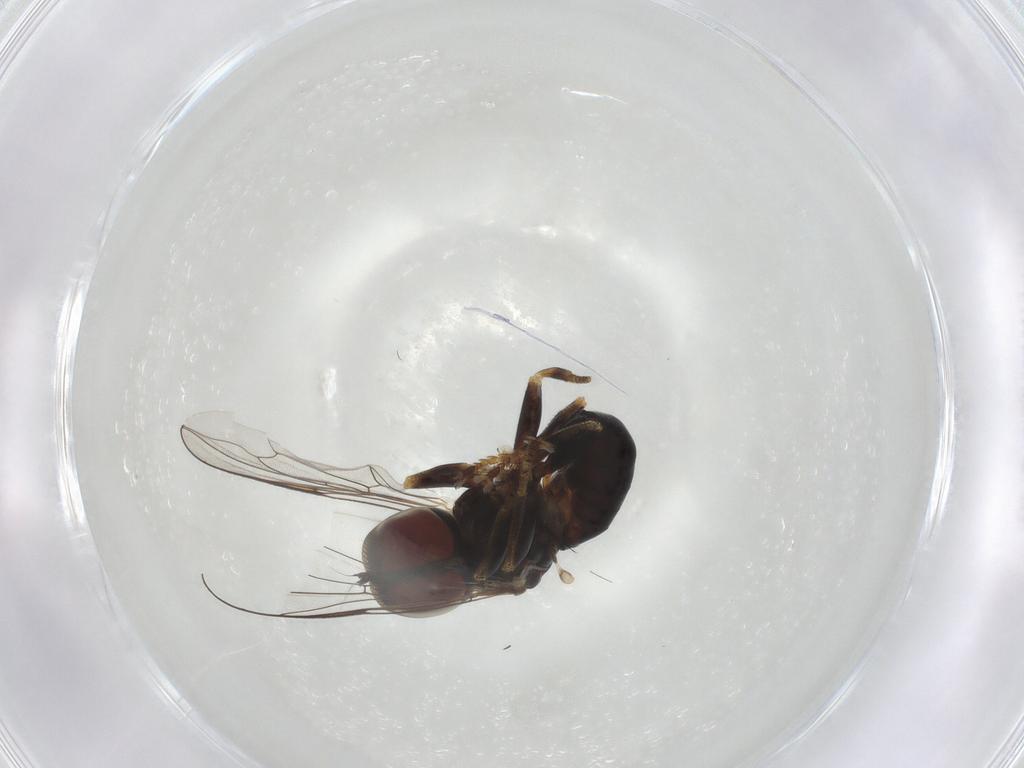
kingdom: Animalia
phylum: Arthropoda
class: Insecta
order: Diptera
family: Pipunculidae
